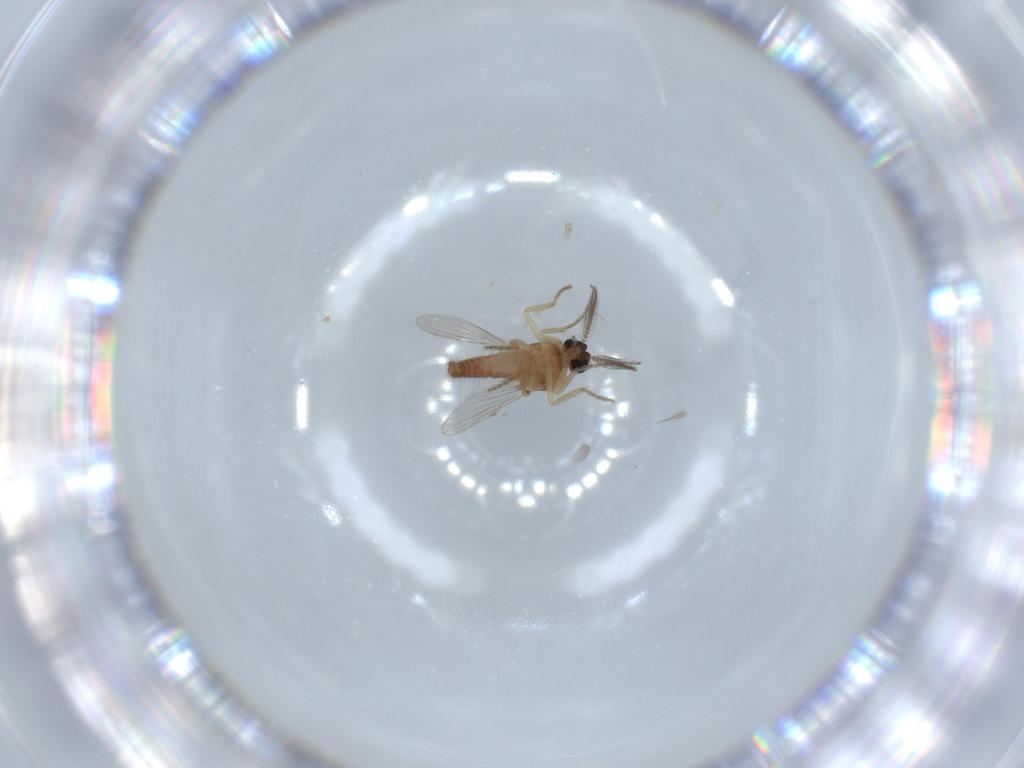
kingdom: Animalia
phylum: Arthropoda
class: Insecta
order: Diptera
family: Ceratopogonidae
